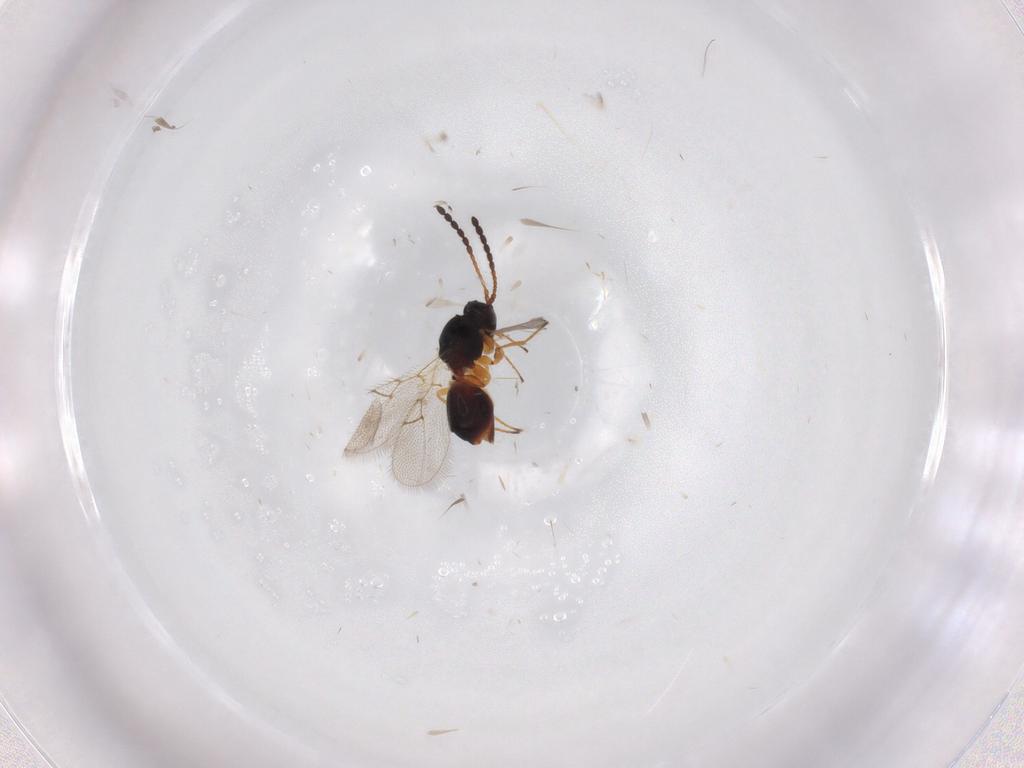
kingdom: Animalia
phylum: Arthropoda
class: Insecta
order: Hymenoptera
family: Figitidae
